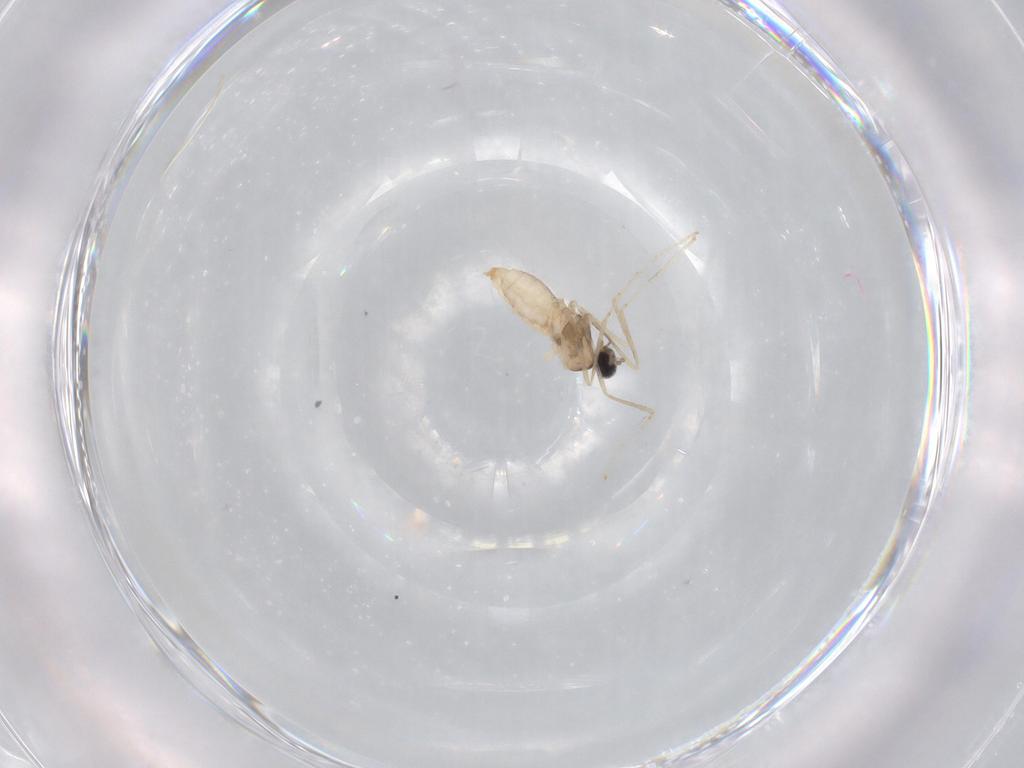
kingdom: Animalia
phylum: Arthropoda
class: Insecta
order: Diptera
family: Cecidomyiidae
